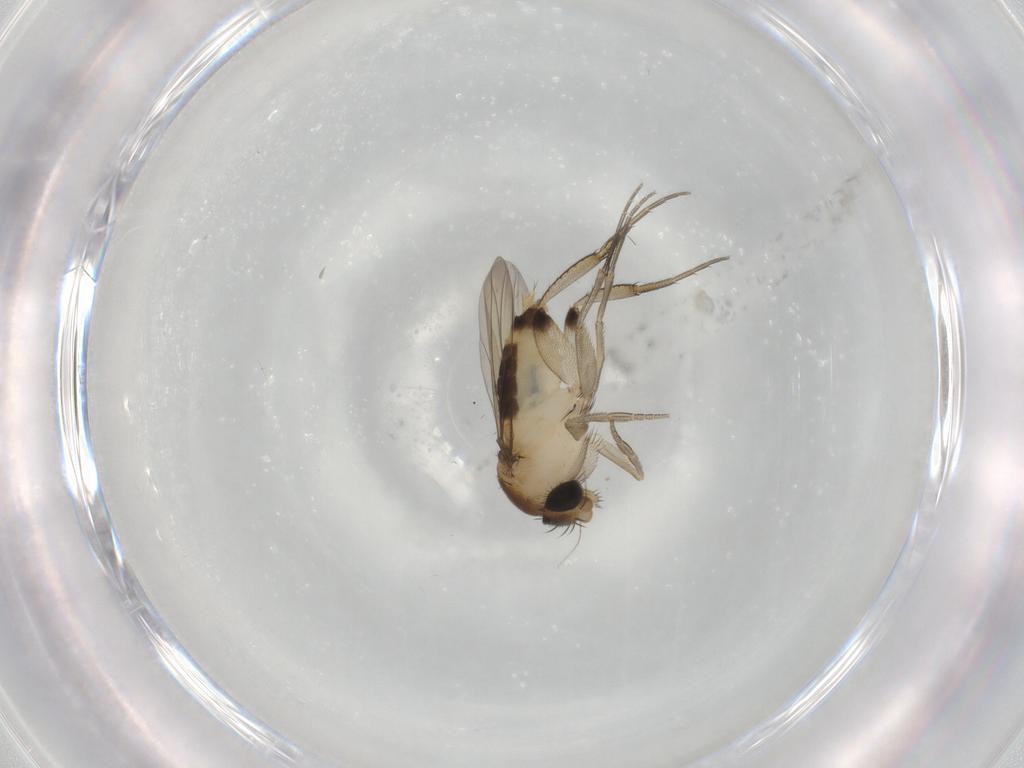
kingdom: Animalia
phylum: Arthropoda
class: Insecta
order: Diptera
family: Phoridae
